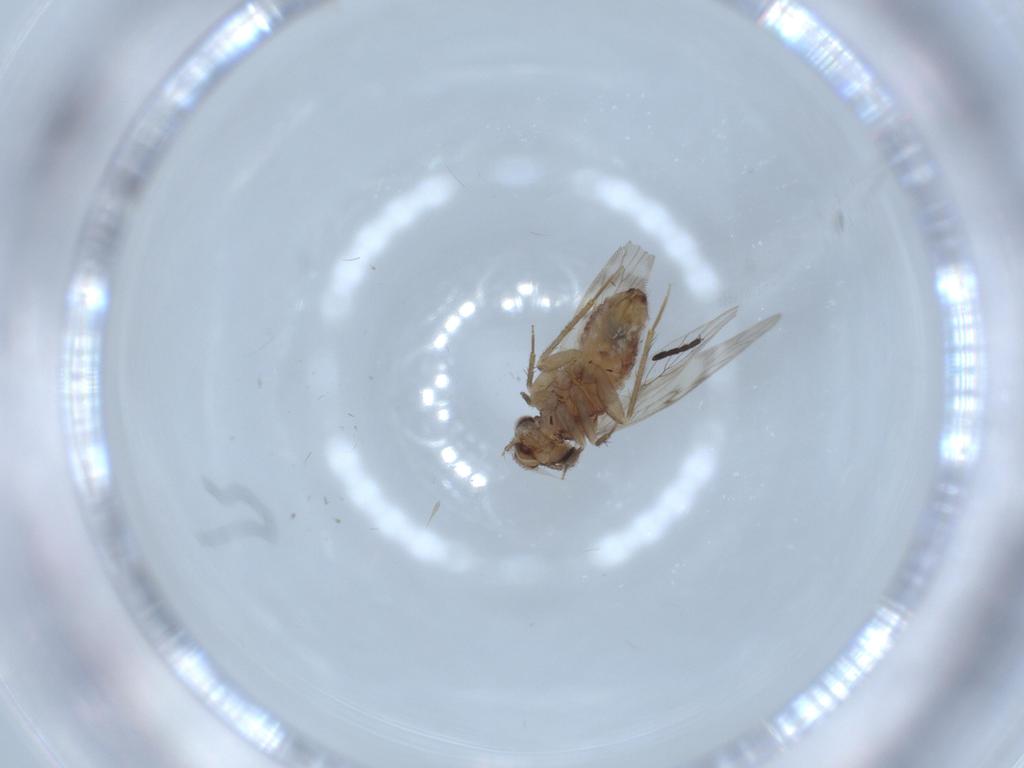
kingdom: Animalia
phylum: Arthropoda
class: Insecta
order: Psocodea
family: Lepidopsocidae
